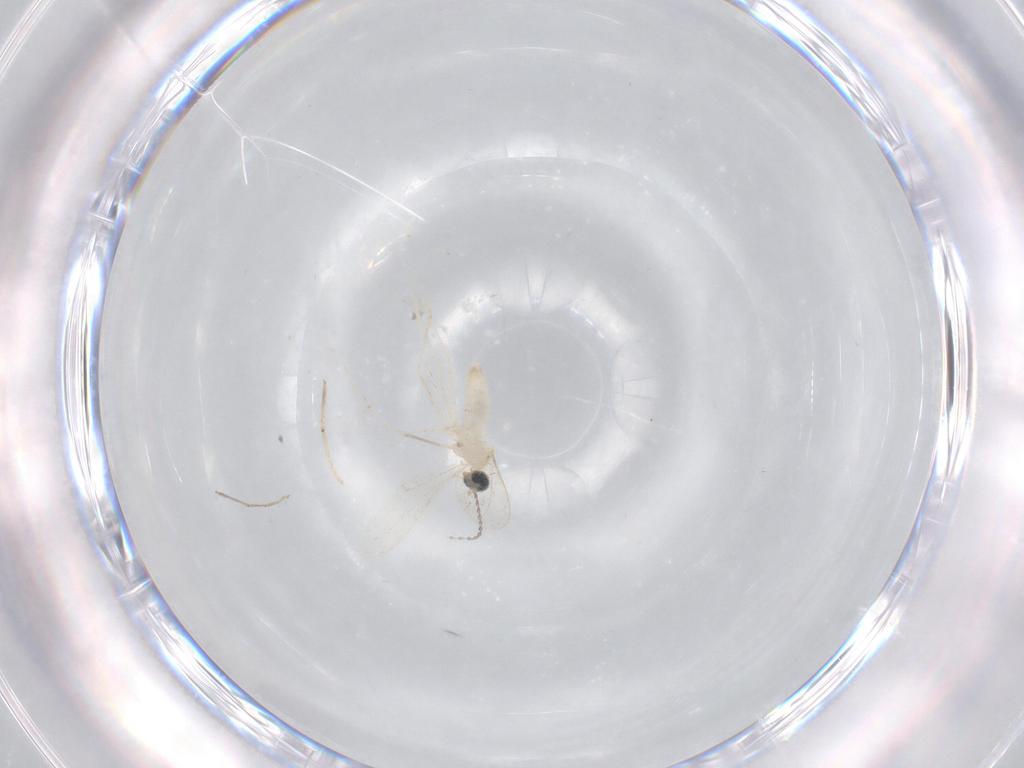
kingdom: Animalia
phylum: Arthropoda
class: Insecta
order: Diptera
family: Cecidomyiidae
